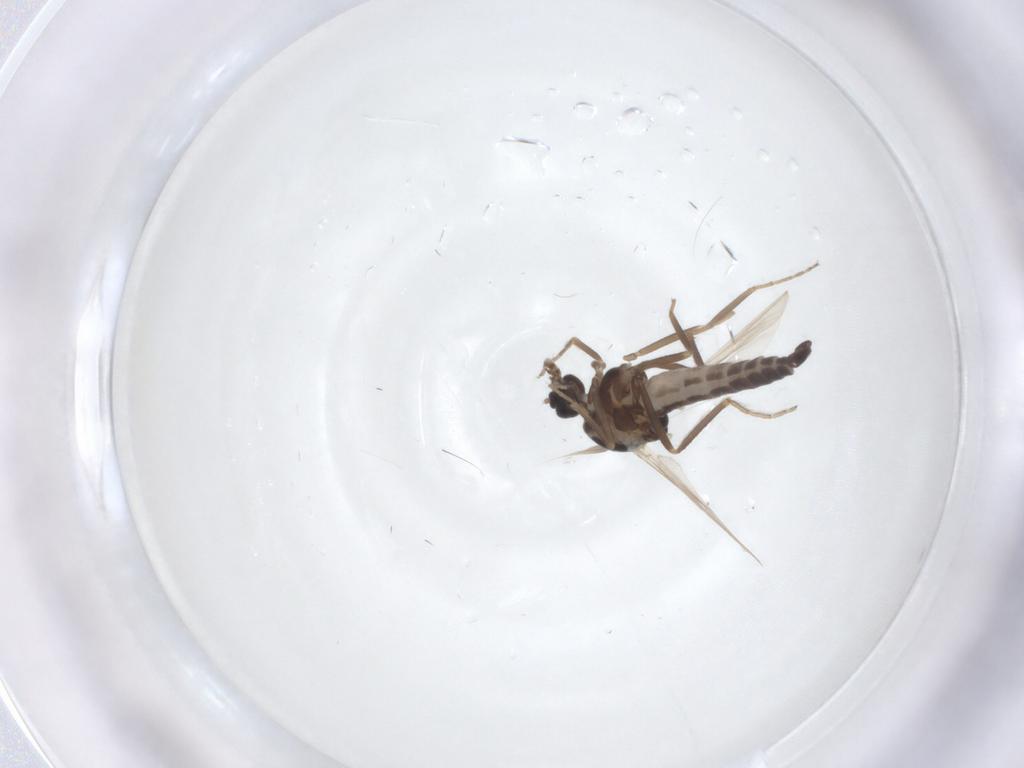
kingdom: Animalia
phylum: Arthropoda
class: Insecta
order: Diptera
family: Ceratopogonidae
